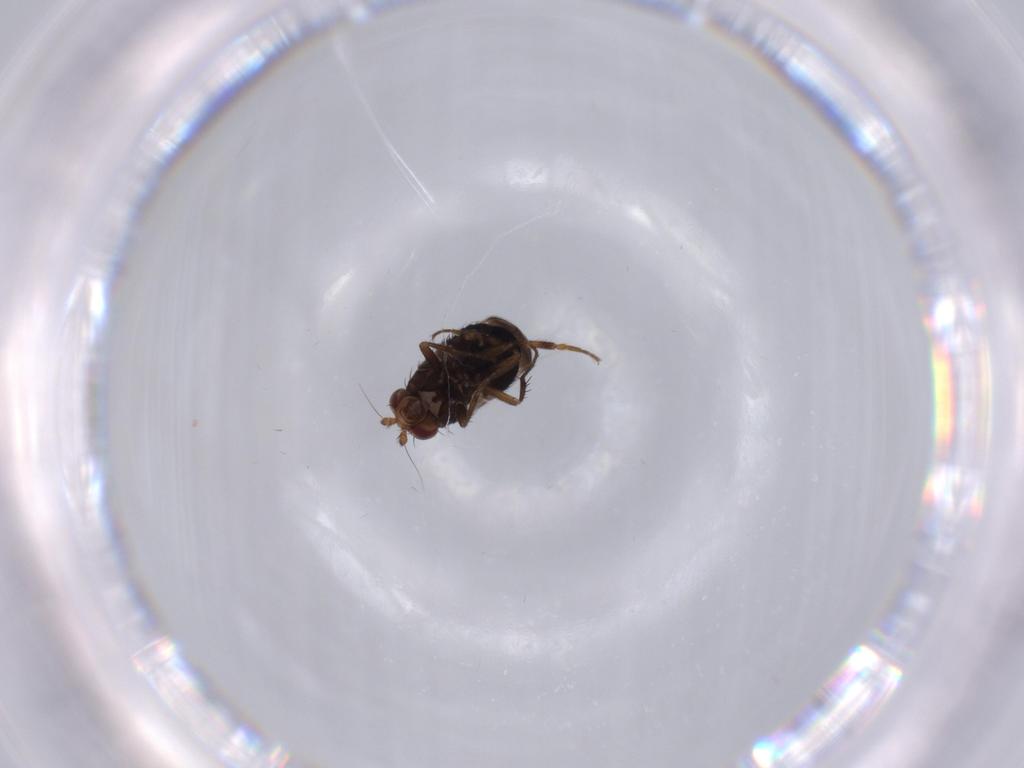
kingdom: Animalia
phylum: Arthropoda
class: Insecta
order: Diptera
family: Sphaeroceridae
